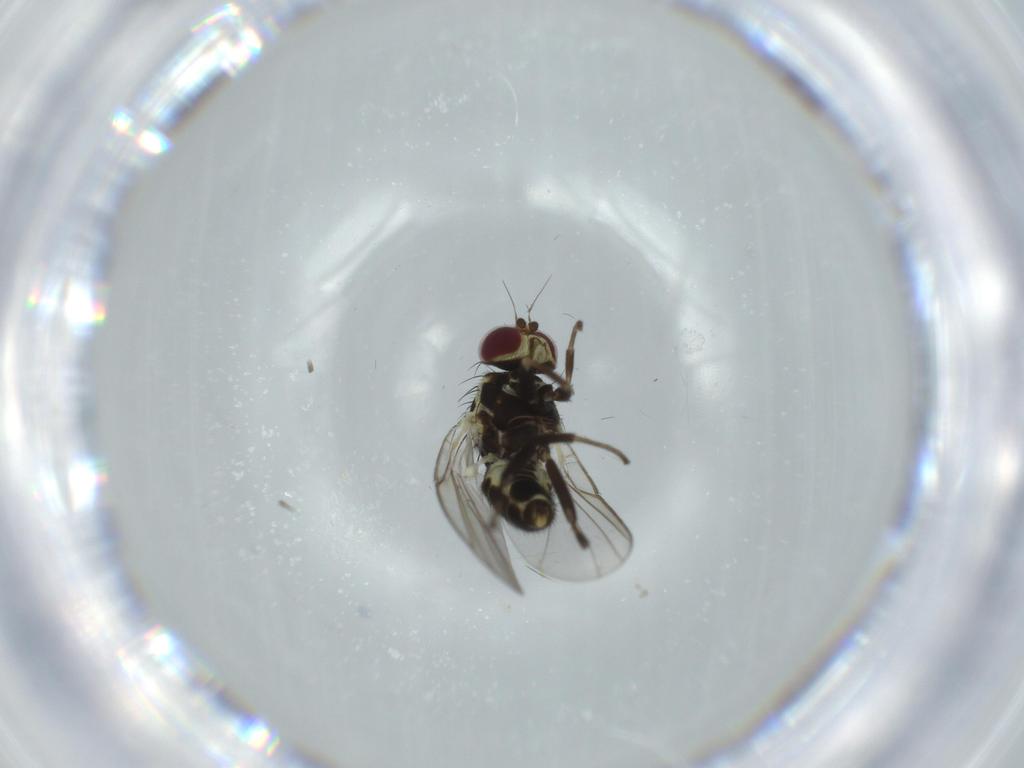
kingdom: Animalia
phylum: Arthropoda
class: Insecta
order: Diptera
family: Agromyzidae
